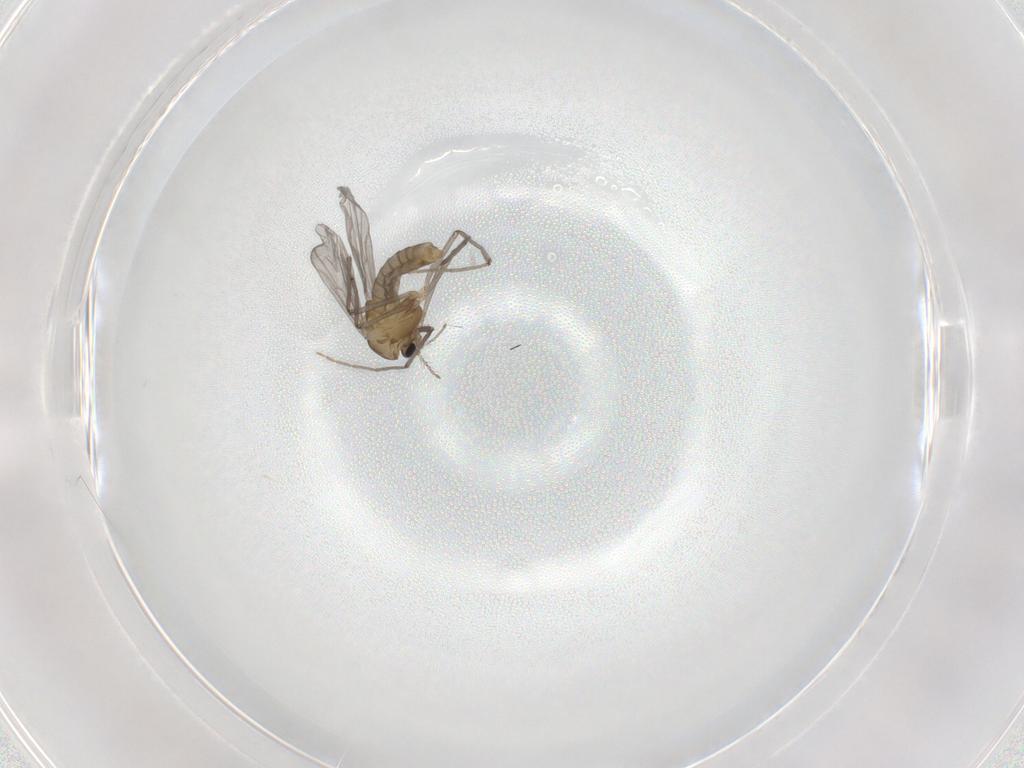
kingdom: Animalia
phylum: Arthropoda
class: Insecta
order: Diptera
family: Chironomidae
